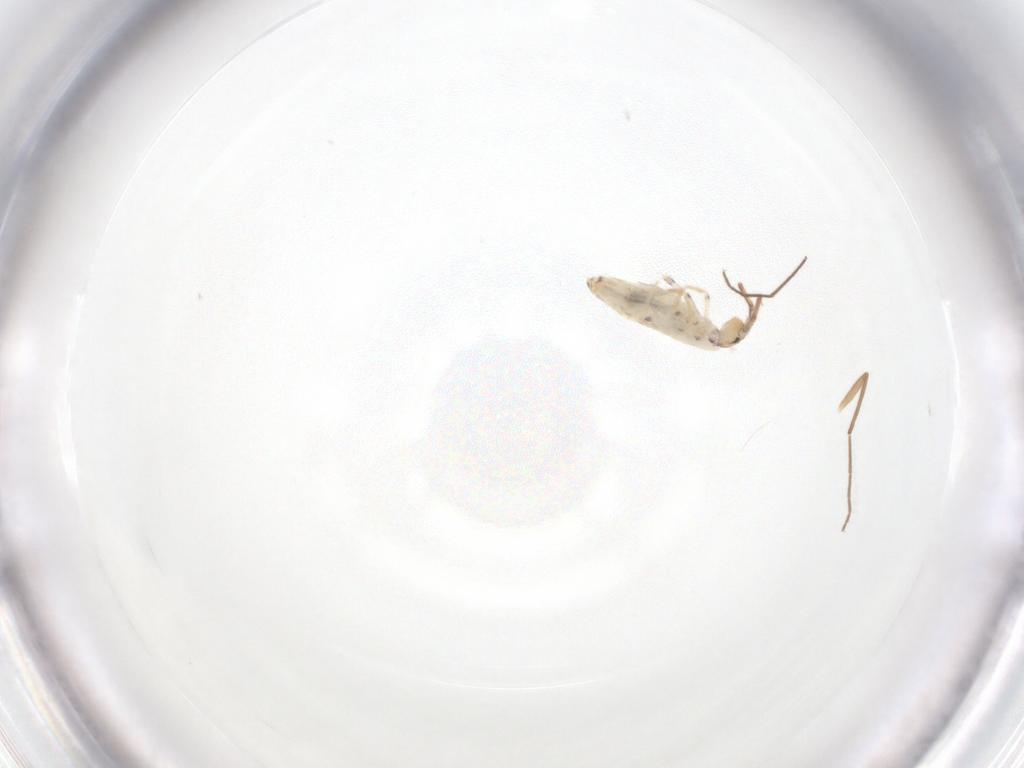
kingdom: Animalia
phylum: Arthropoda
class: Collembola
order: Entomobryomorpha
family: Entomobryidae
